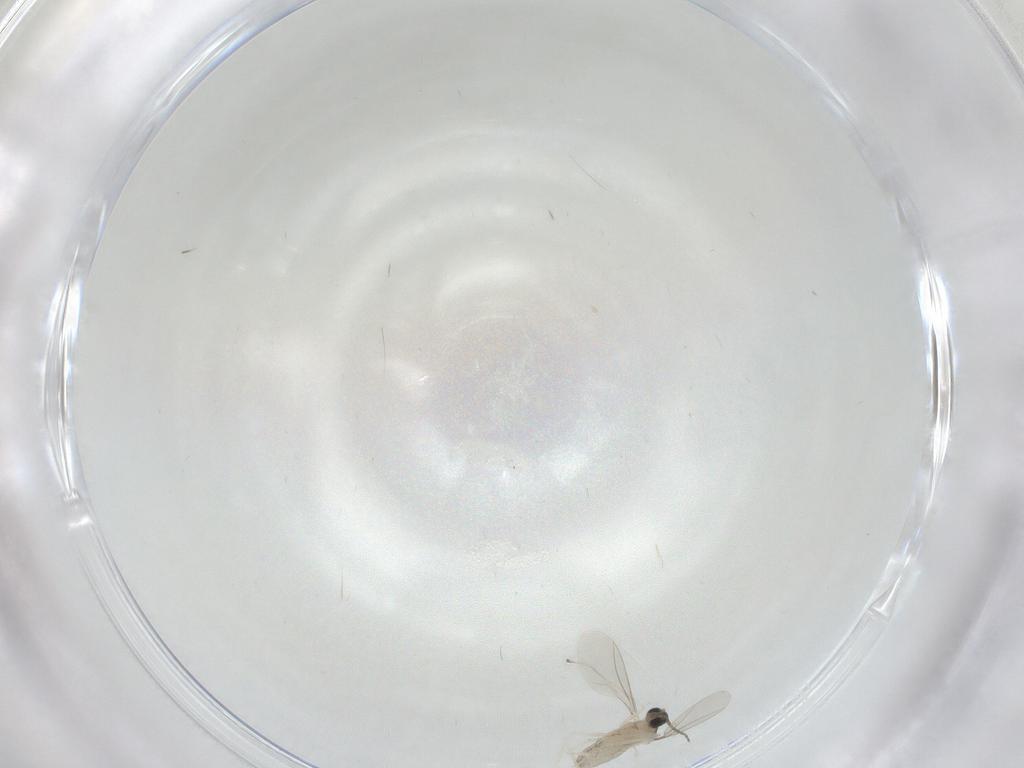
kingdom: Animalia
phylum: Arthropoda
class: Insecta
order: Diptera
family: Cecidomyiidae
